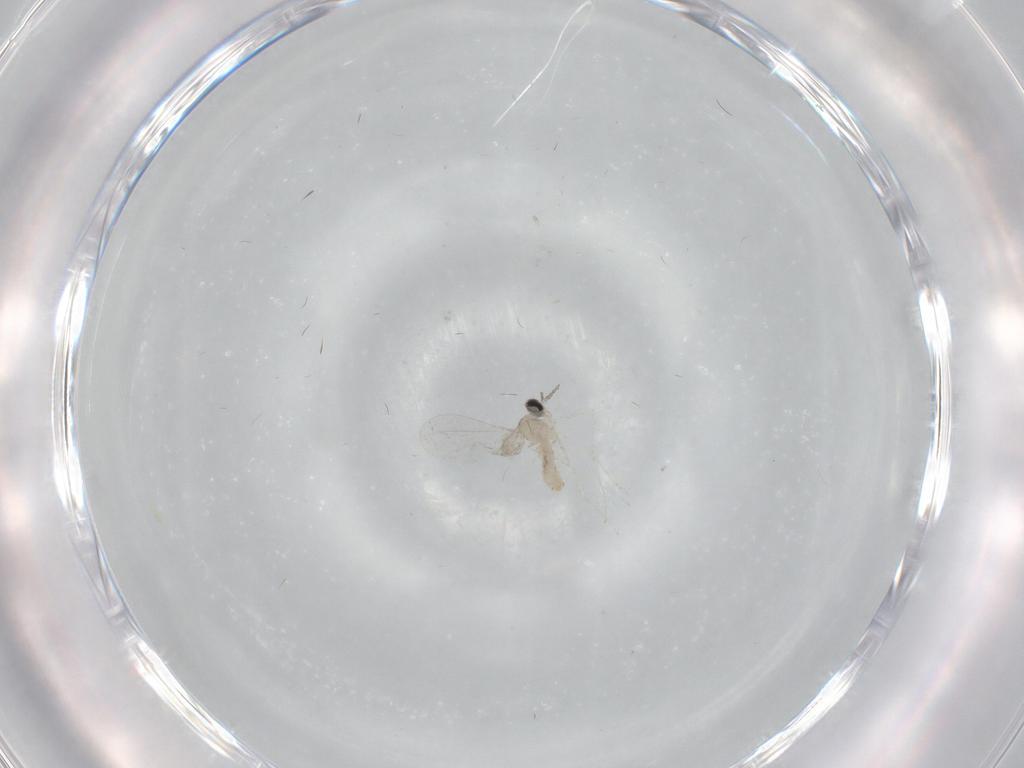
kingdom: Animalia
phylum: Arthropoda
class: Insecta
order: Diptera
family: Cecidomyiidae
